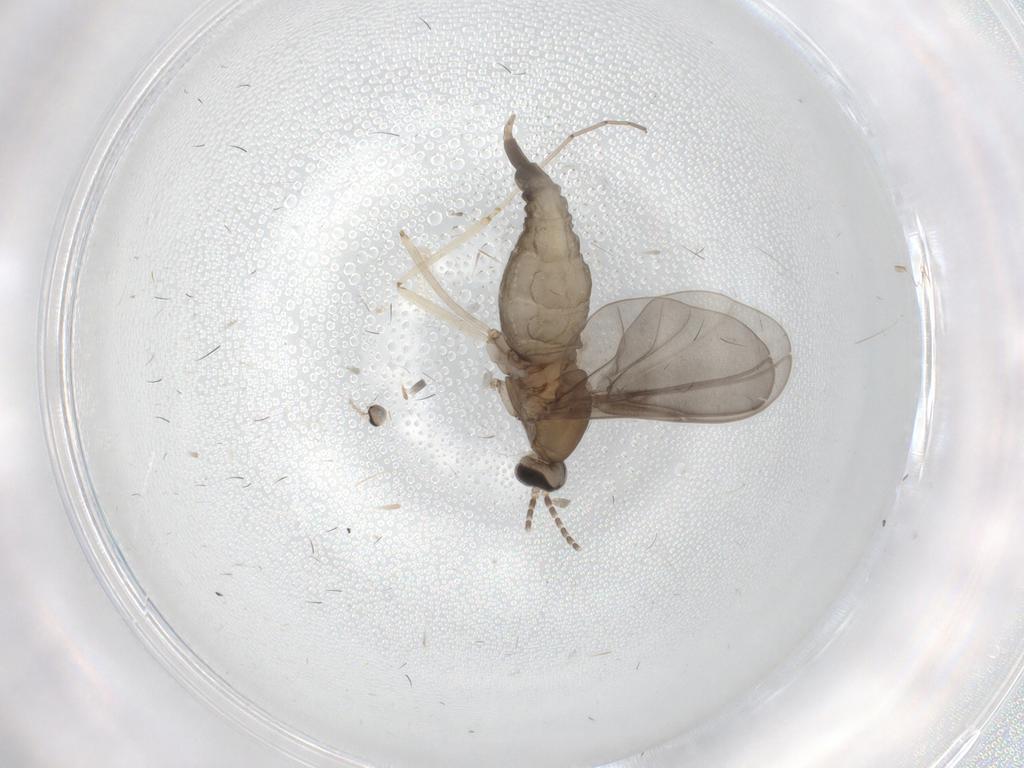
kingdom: Animalia
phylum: Arthropoda
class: Insecta
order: Diptera
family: Cecidomyiidae
